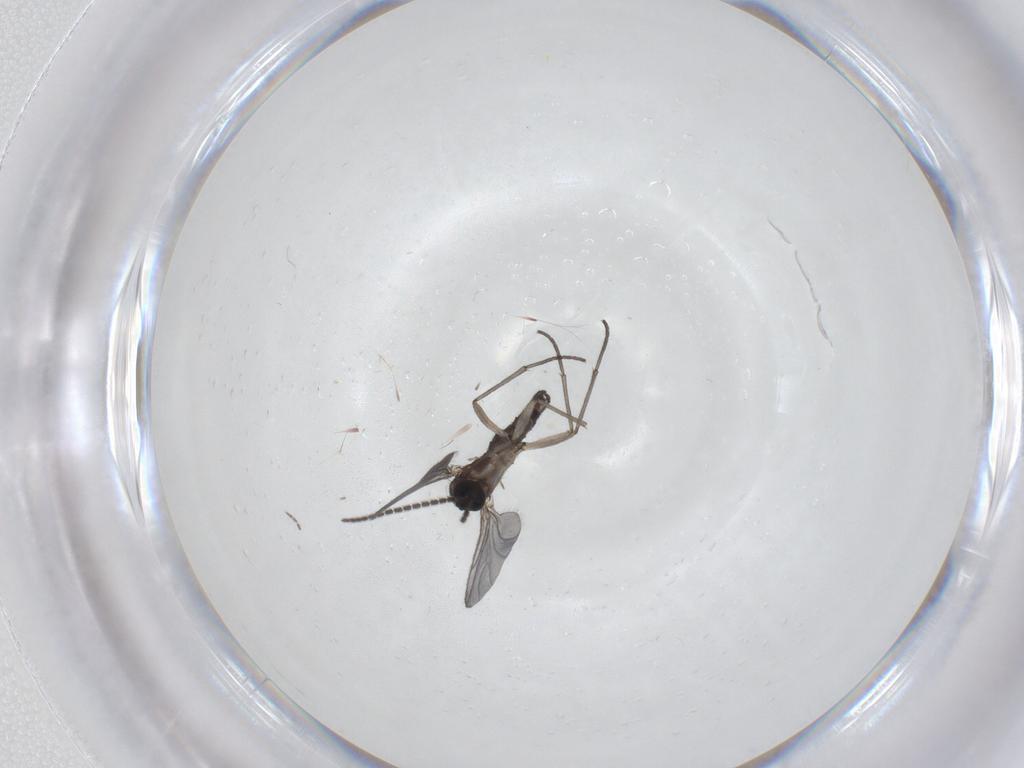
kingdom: Animalia
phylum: Arthropoda
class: Insecta
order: Diptera
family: Sciaridae
